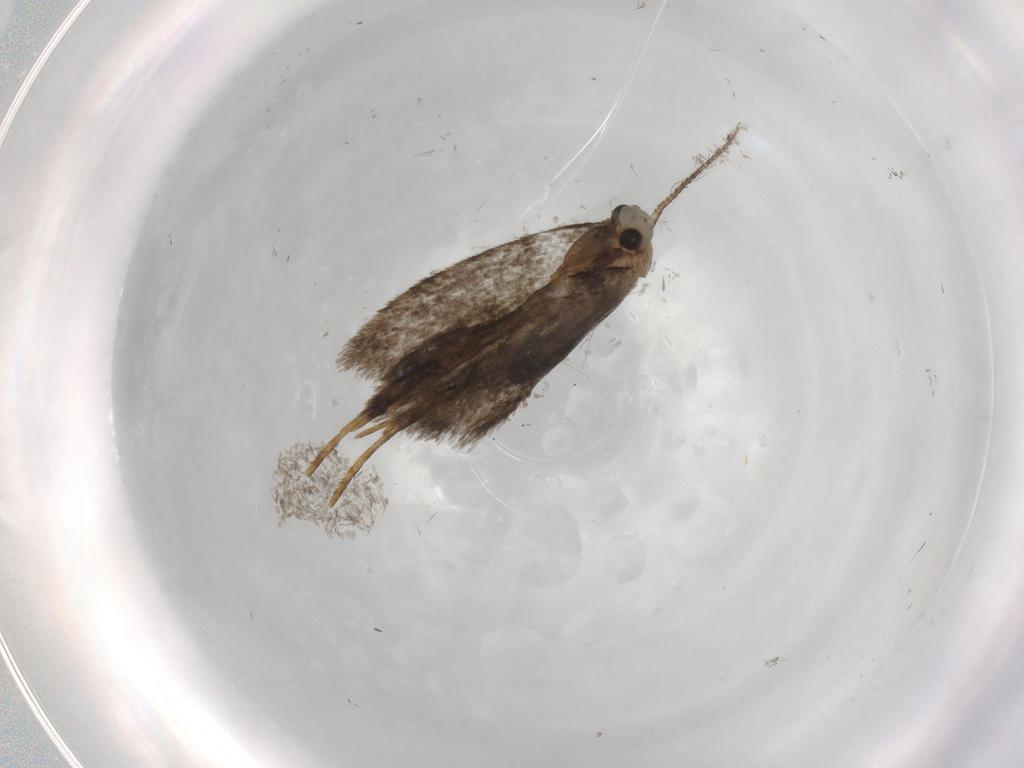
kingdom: Animalia
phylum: Arthropoda
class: Insecta
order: Lepidoptera
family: Psychidae
